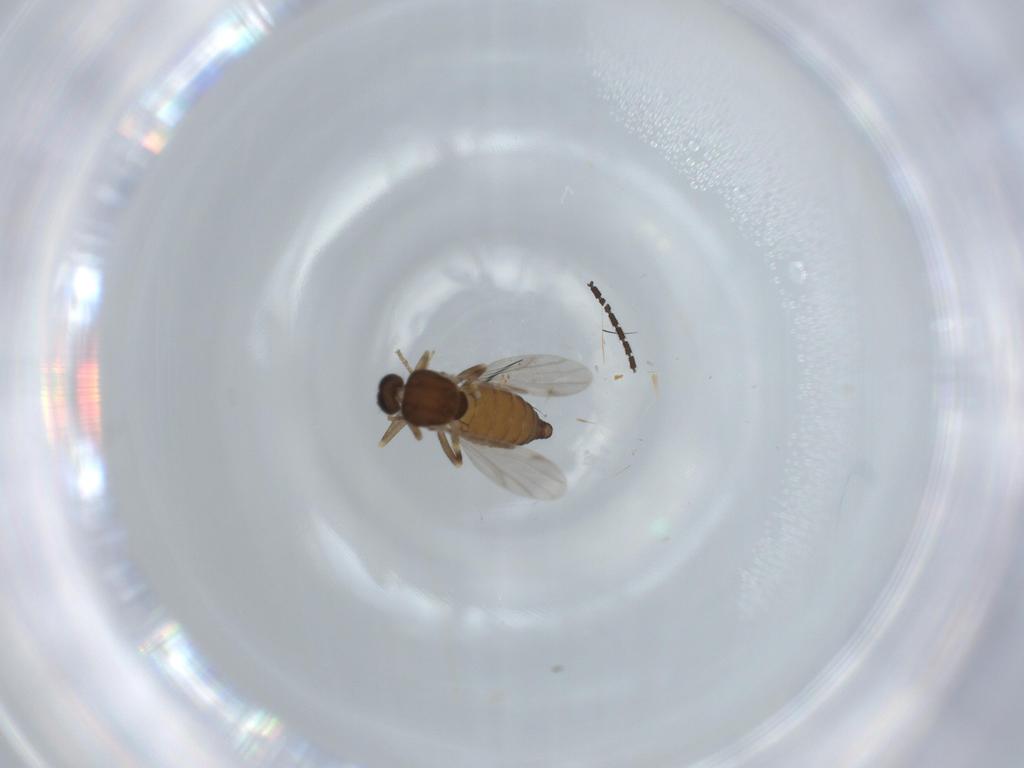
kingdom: Animalia
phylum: Arthropoda
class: Insecta
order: Diptera
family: Ceratopogonidae
